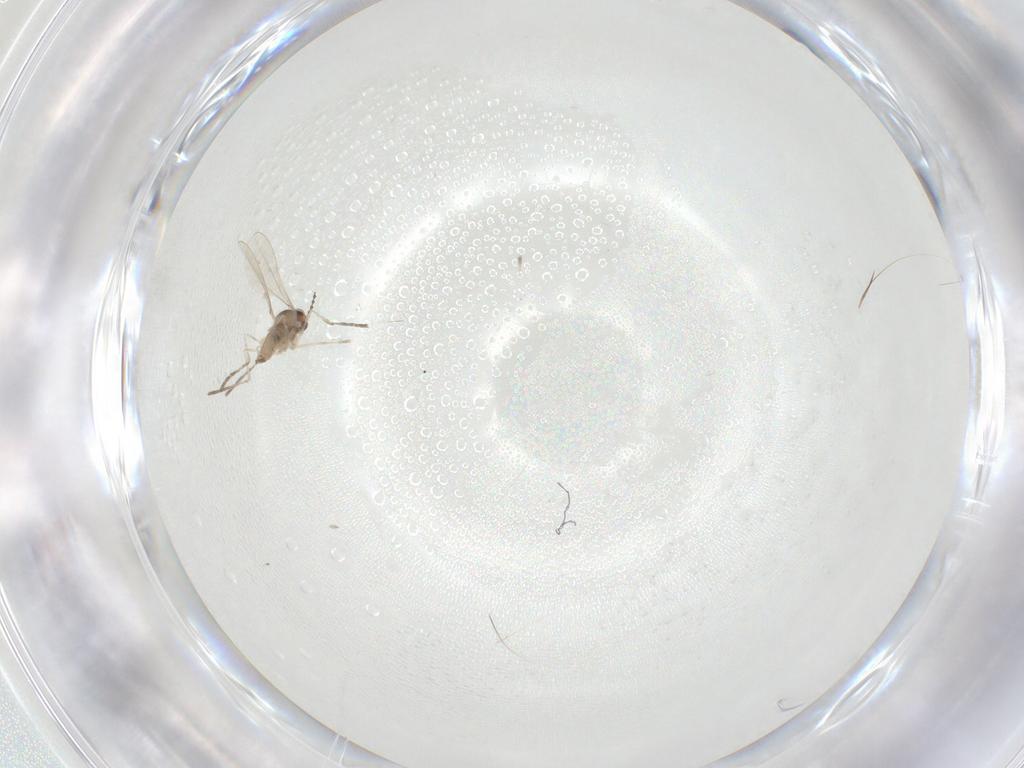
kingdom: Animalia
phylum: Arthropoda
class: Insecta
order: Diptera
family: Cecidomyiidae
